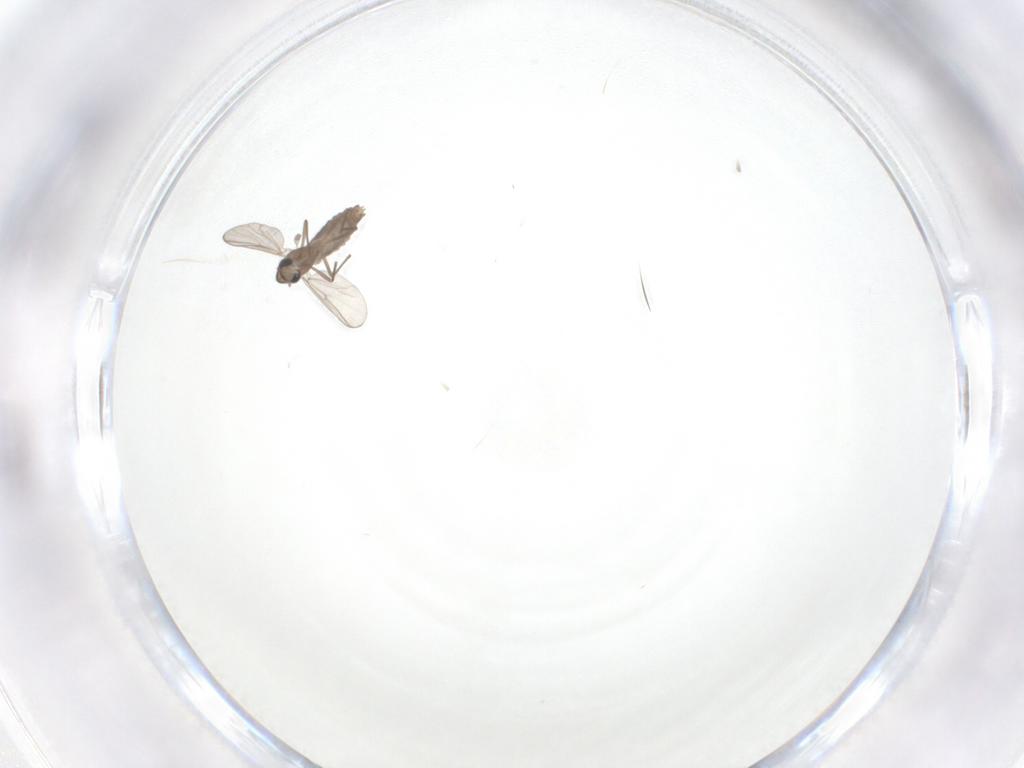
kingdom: Animalia
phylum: Arthropoda
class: Insecta
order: Diptera
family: Cecidomyiidae
